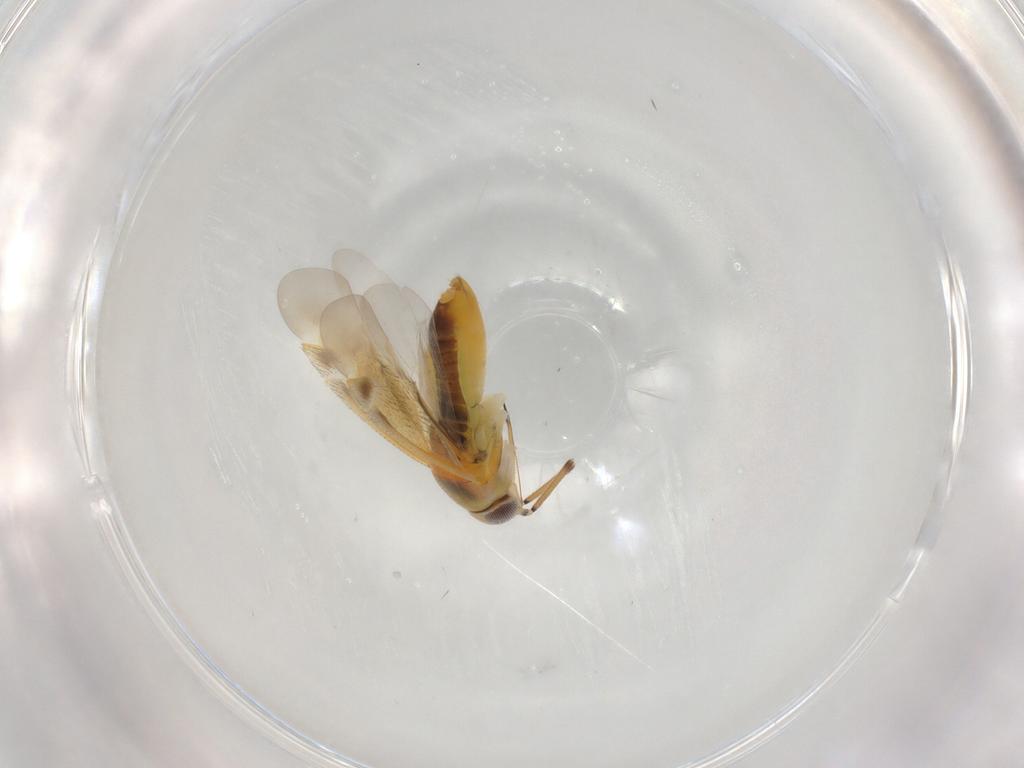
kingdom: Animalia
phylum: Arthropoda
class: Insecta
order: Hemiptera
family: Miridae
